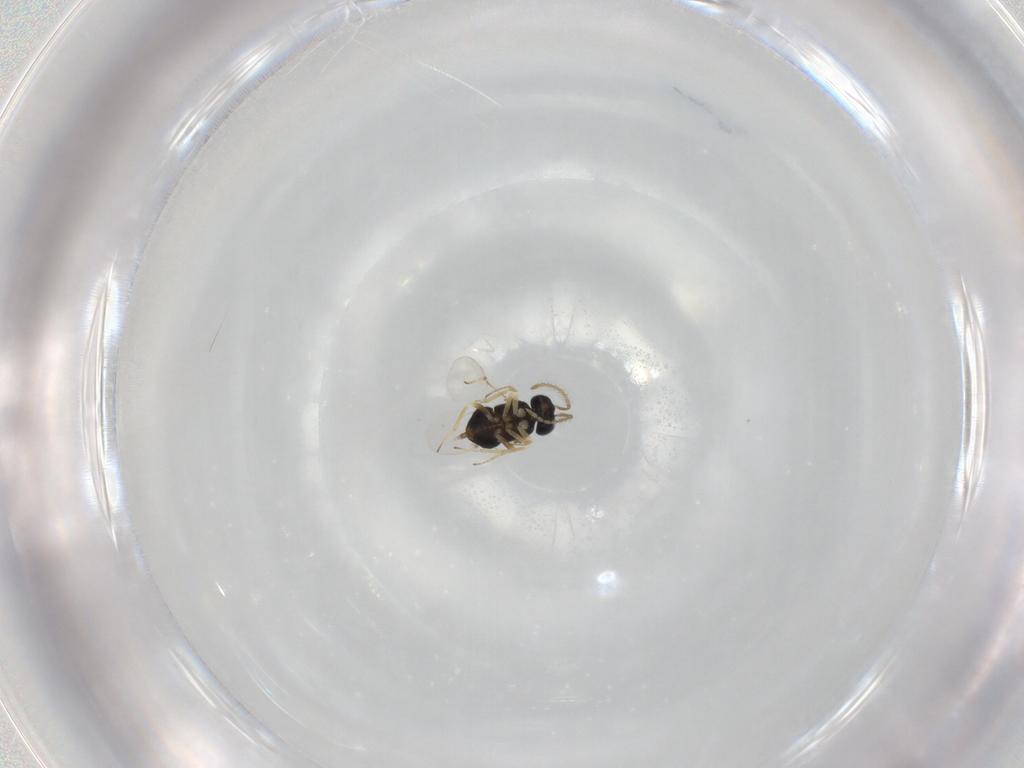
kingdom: Animalia
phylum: Arthropoda
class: Insecta
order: Hymenoptera
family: Encyrtidae
